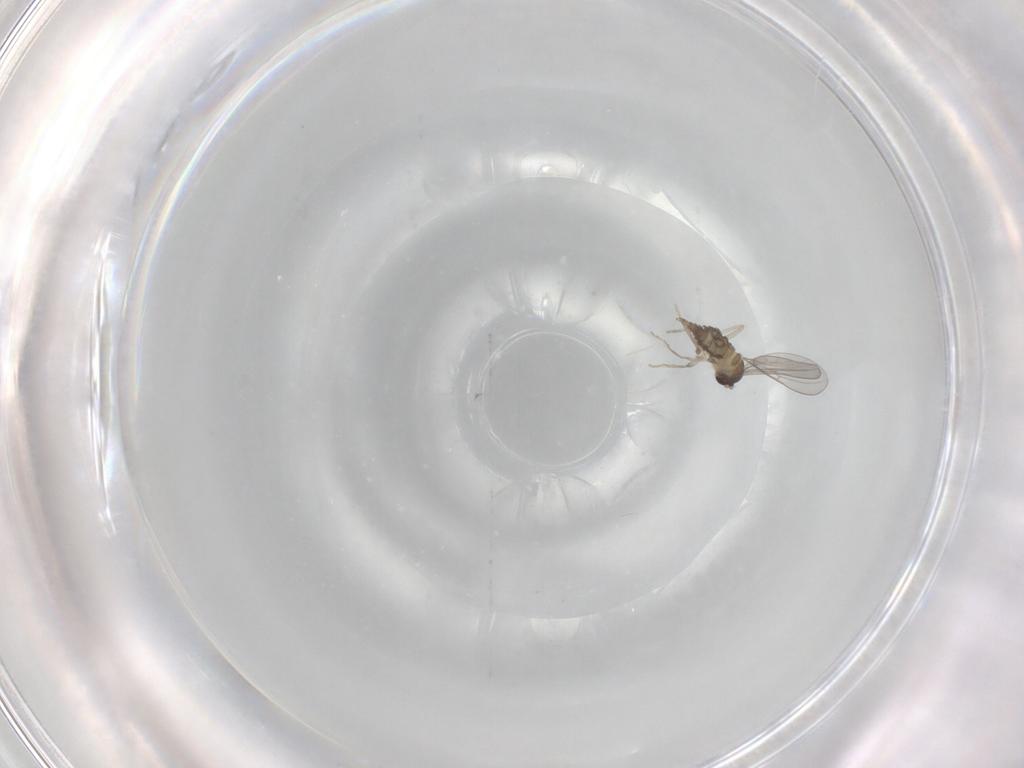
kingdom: Animalia
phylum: Arthropoda
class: Insecta
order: Diptera
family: Cecidomyiidae
